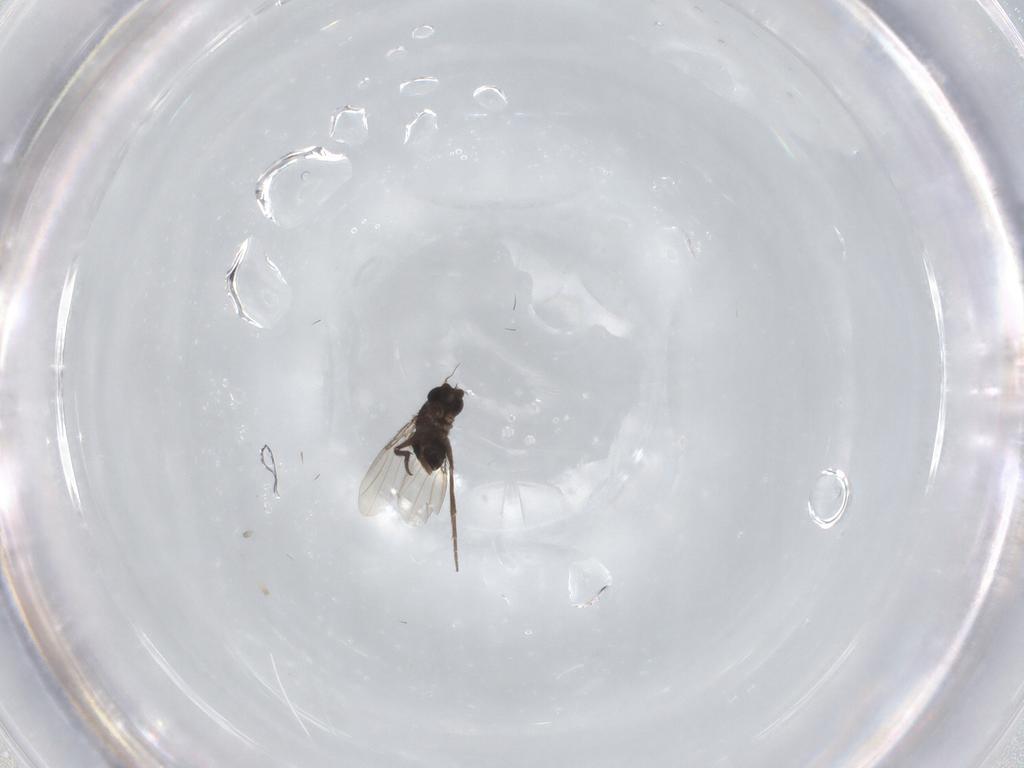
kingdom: Animalia
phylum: Arthropoda
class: Insecta
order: Diptera
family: Phoridae
